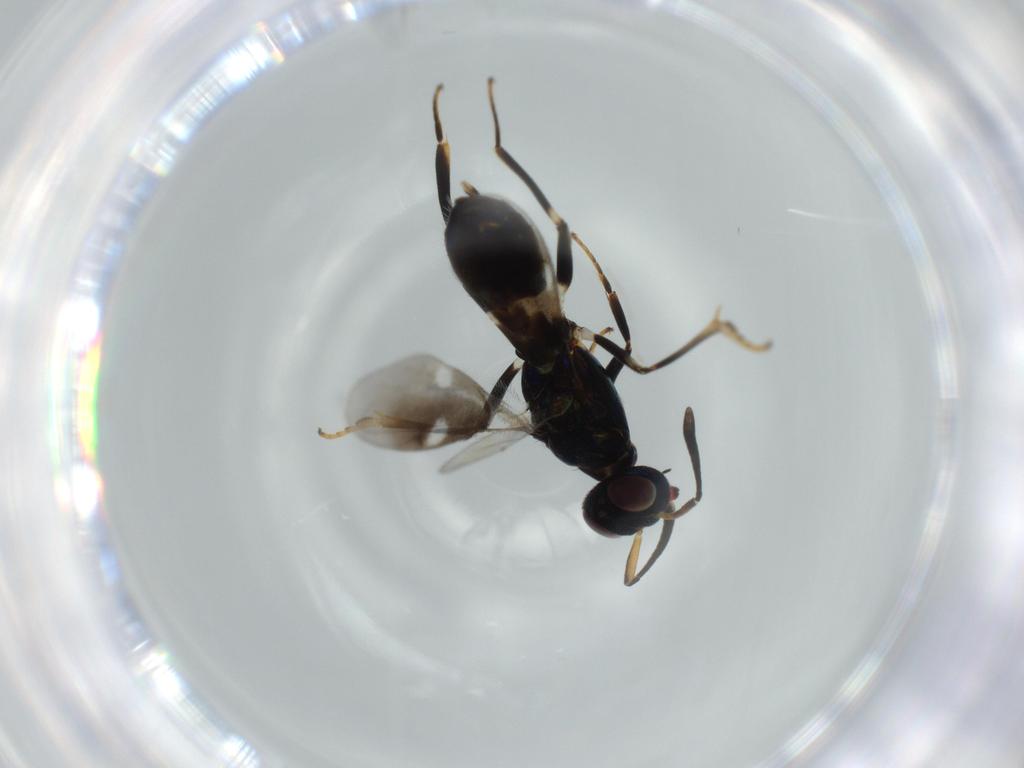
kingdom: Animalia
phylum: Arthropoda
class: Insecta
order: Hymenoptera
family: Eupelmidae
